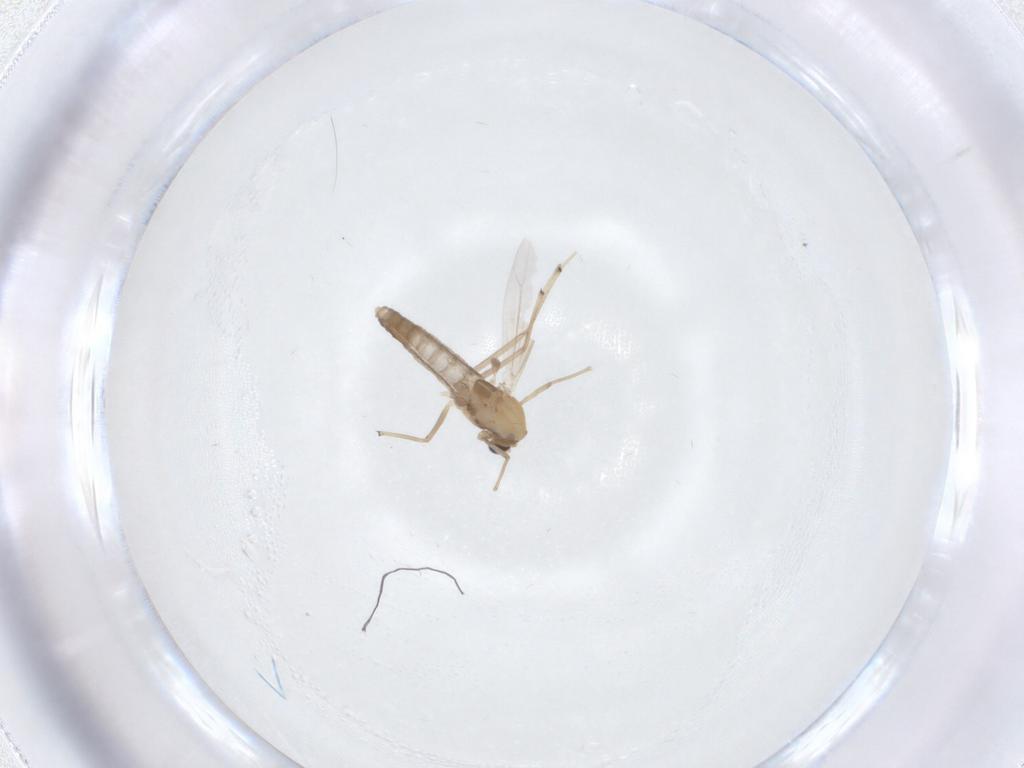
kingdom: Animalia
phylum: Arthropoda
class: Insecta
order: Diptera
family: Chironomidae
